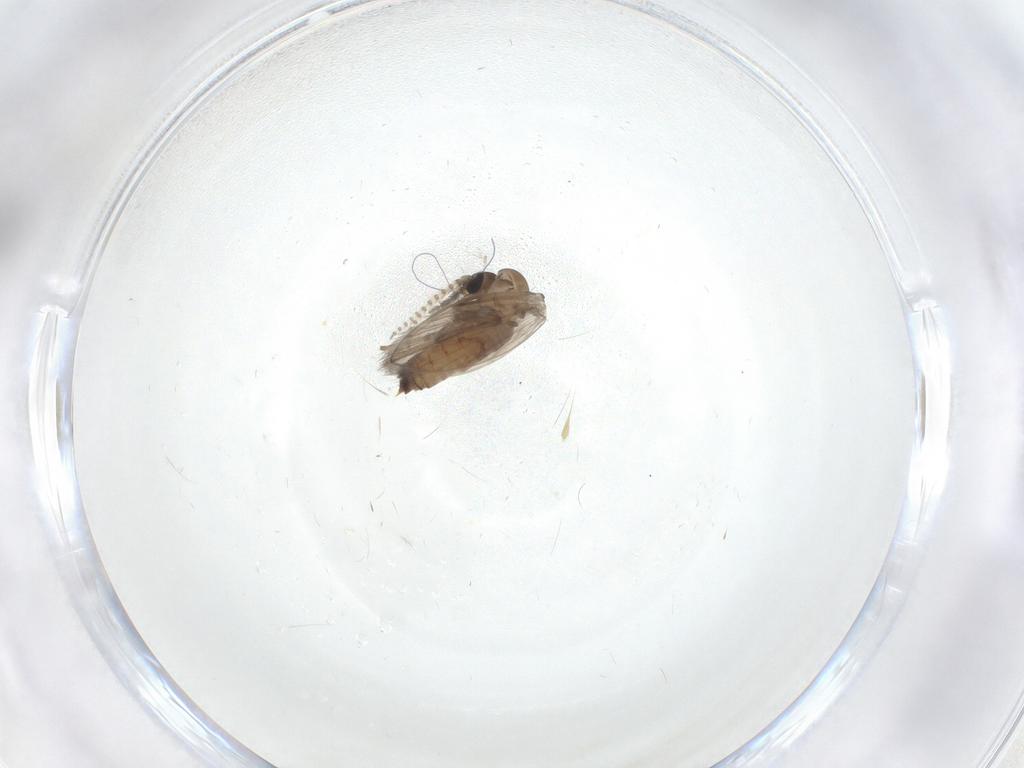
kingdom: Animalia
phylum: Arthropoda
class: Insecta
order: Diptera
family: Psychodidae
